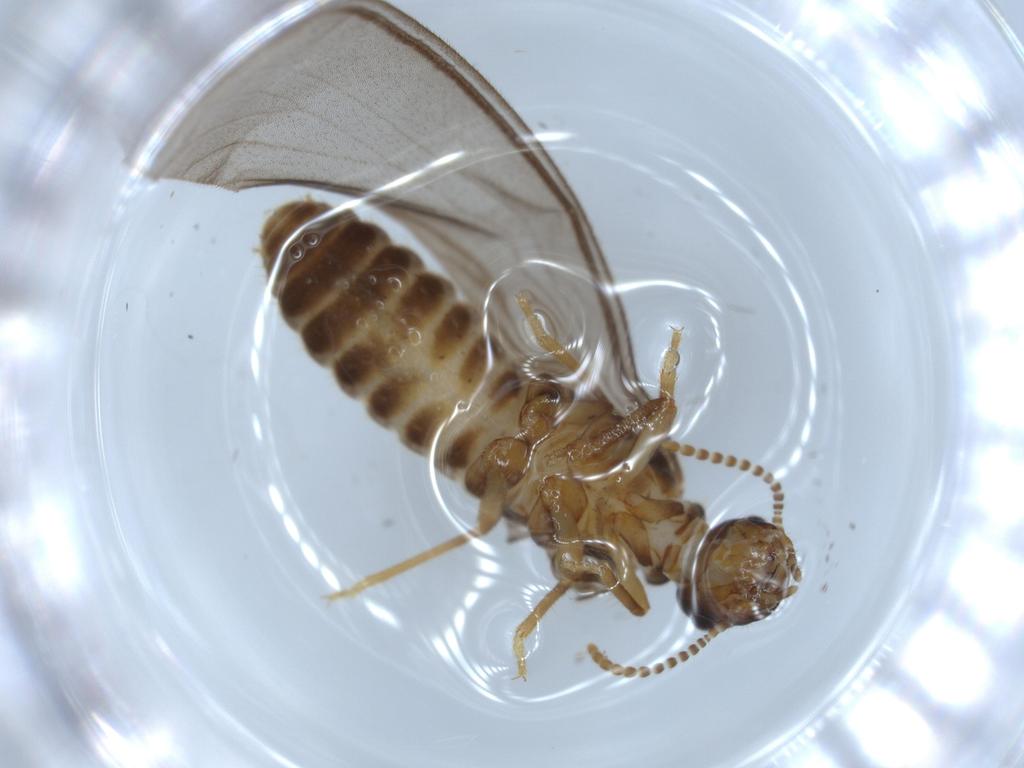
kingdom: Animalia
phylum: Arthropoda
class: Insecta
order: Blattodea
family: Termitidae
